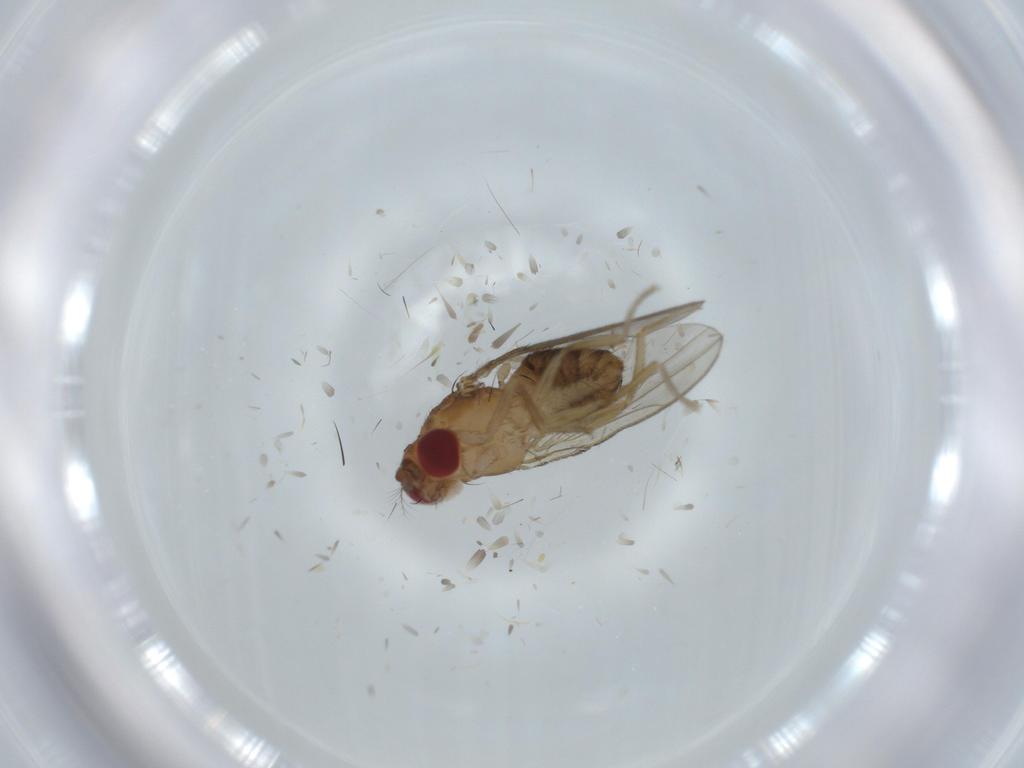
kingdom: Animalia
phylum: Arthropoda
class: Insecta
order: Diptera
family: Drosophilidae
